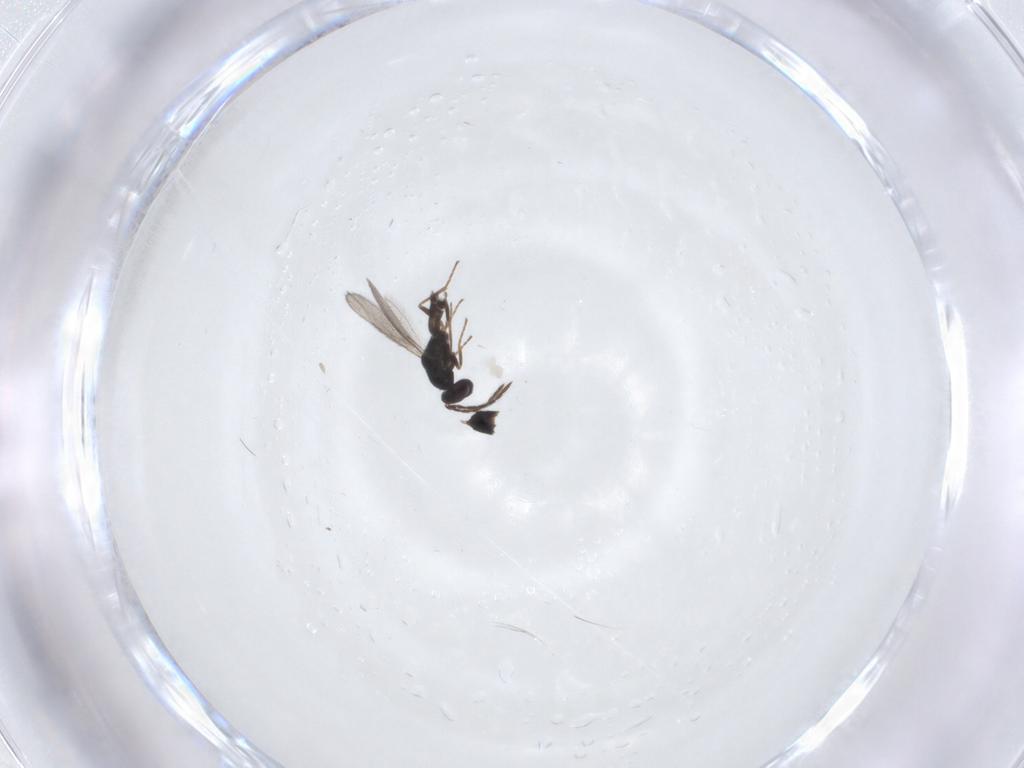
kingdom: Animalia
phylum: Arthropoda
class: Insecta
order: Hymenoptera
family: Eulophidae
